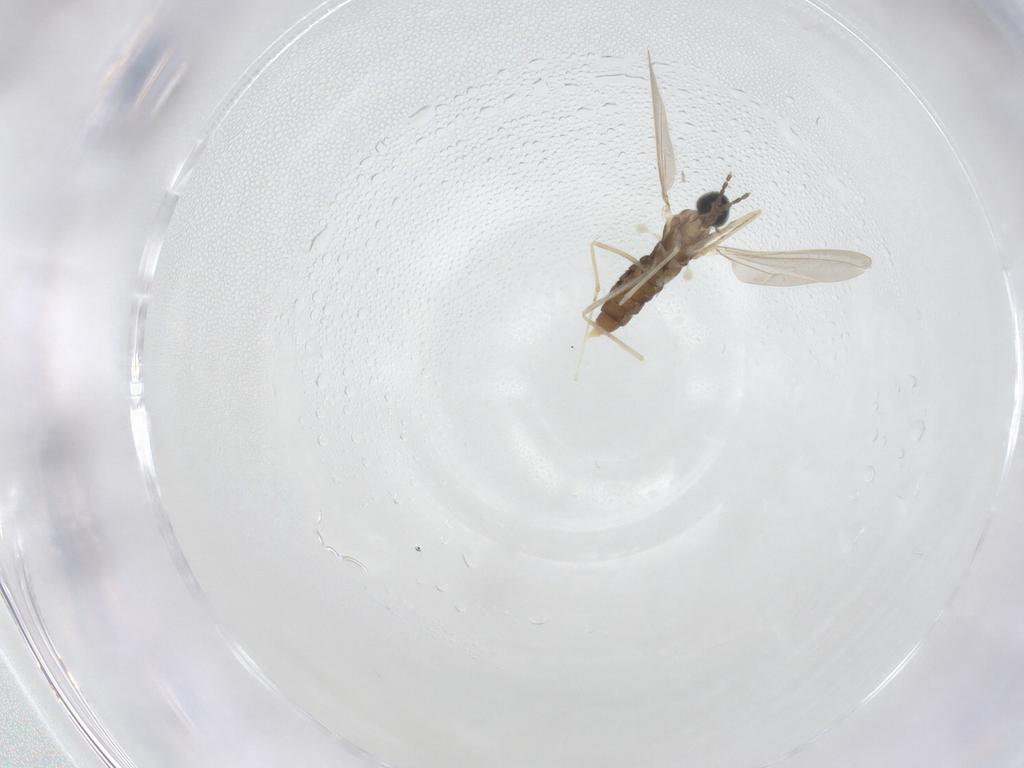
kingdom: Animalia
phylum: Arthropoda
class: Insecta
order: Diptera
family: Cecidomyiidae
